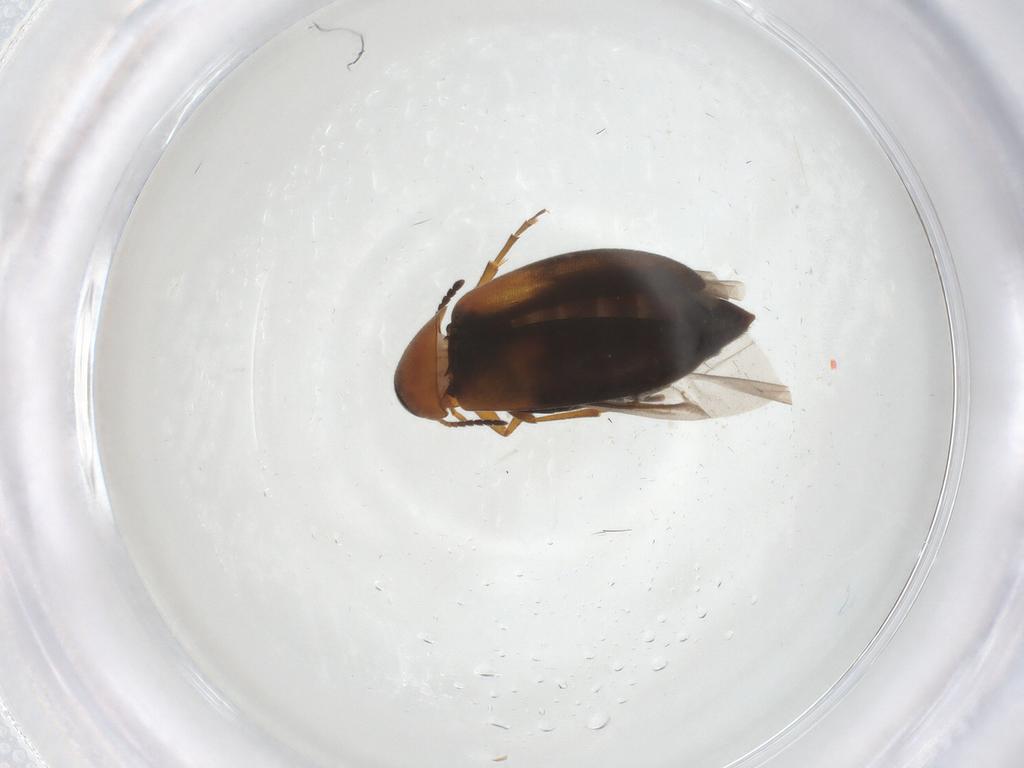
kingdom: Animalia
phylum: Arthropoda
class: Insecta
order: Coleoptera
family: Scraptiidae
